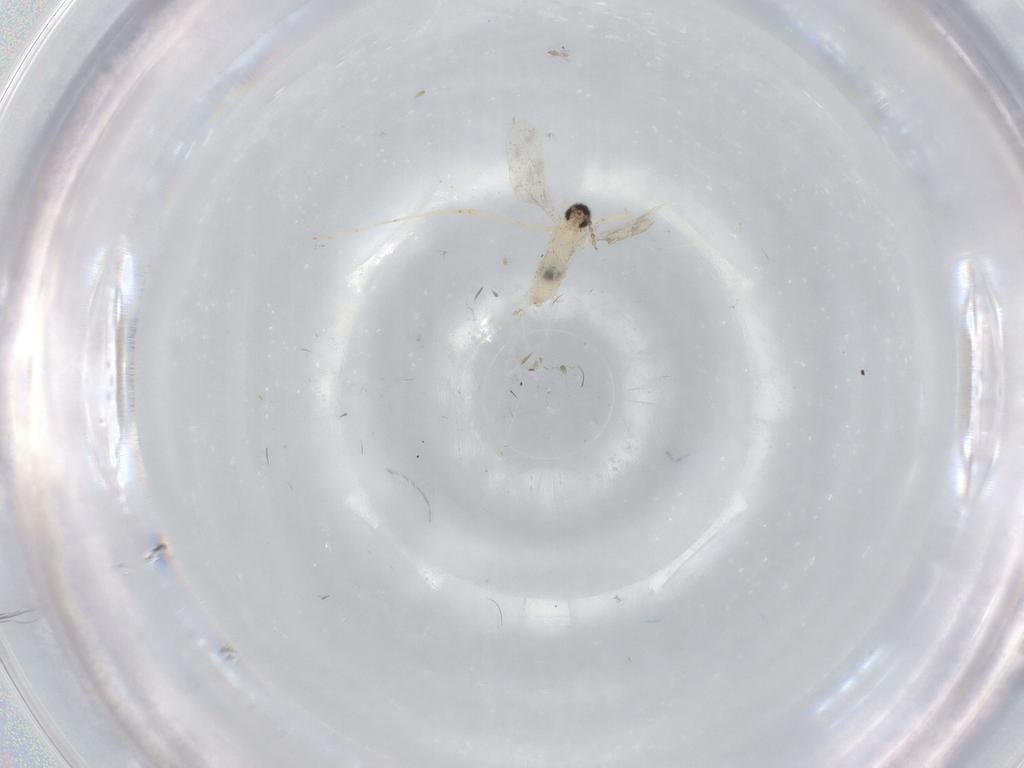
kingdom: Animalia
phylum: Arthropoda
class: Insecta
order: Diptera
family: Cecidomyiidae
